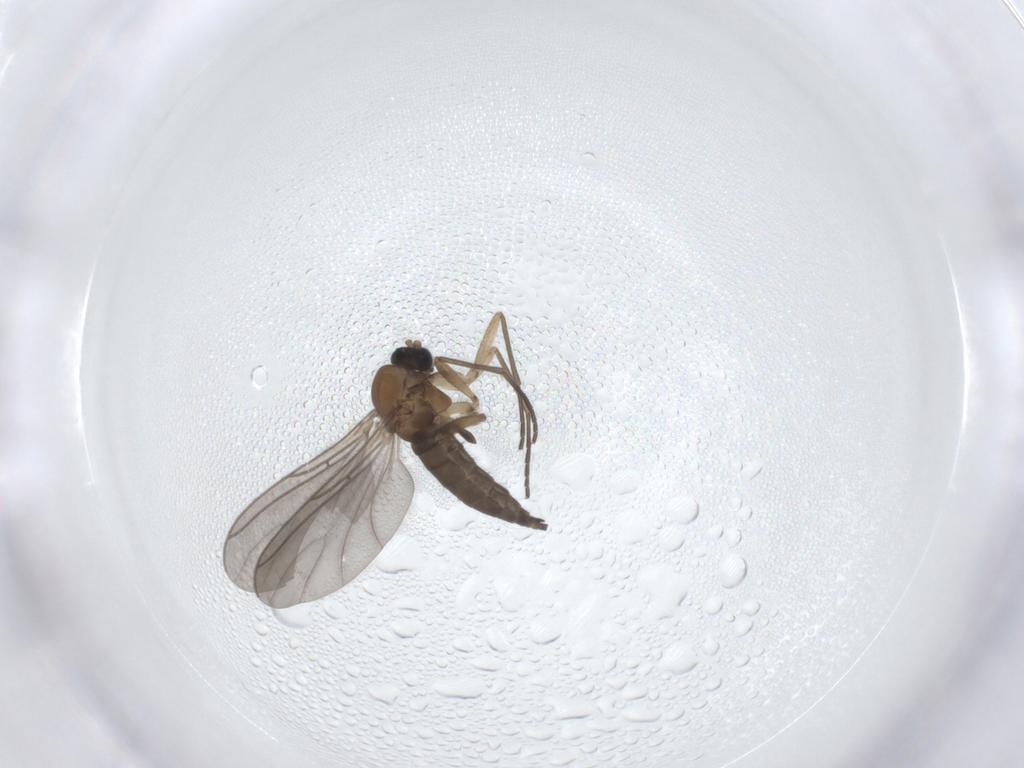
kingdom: Animalia
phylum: Arthropoda
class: Insecta
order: Diptera
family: Sciaridae
